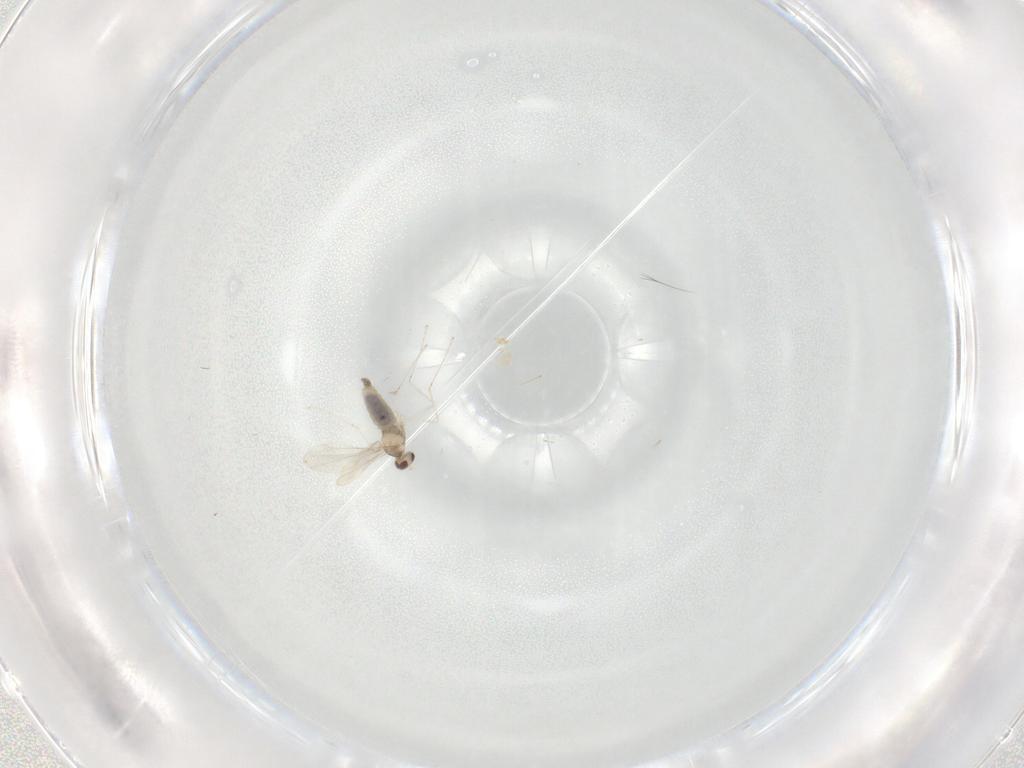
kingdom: Animalia
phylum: Arthropoda
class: Insecta
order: Diptera
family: Cecidomyiidae
